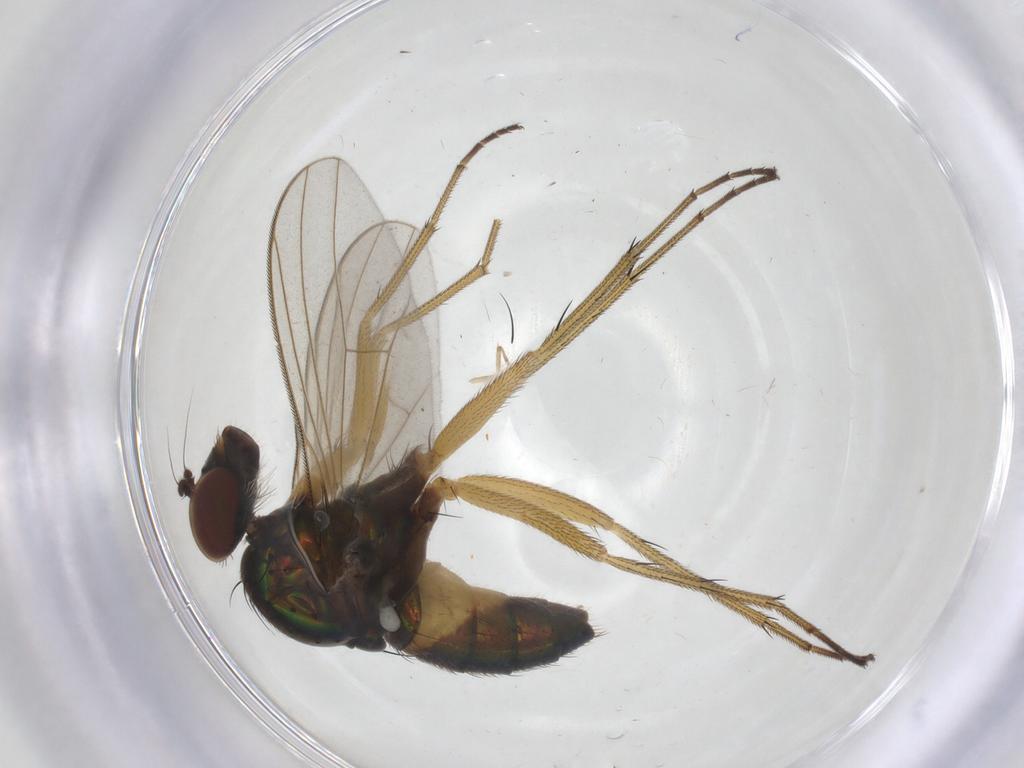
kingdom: Animalia
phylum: Arthropoda
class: Insecta
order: Diptera
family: Dolichopodidae
